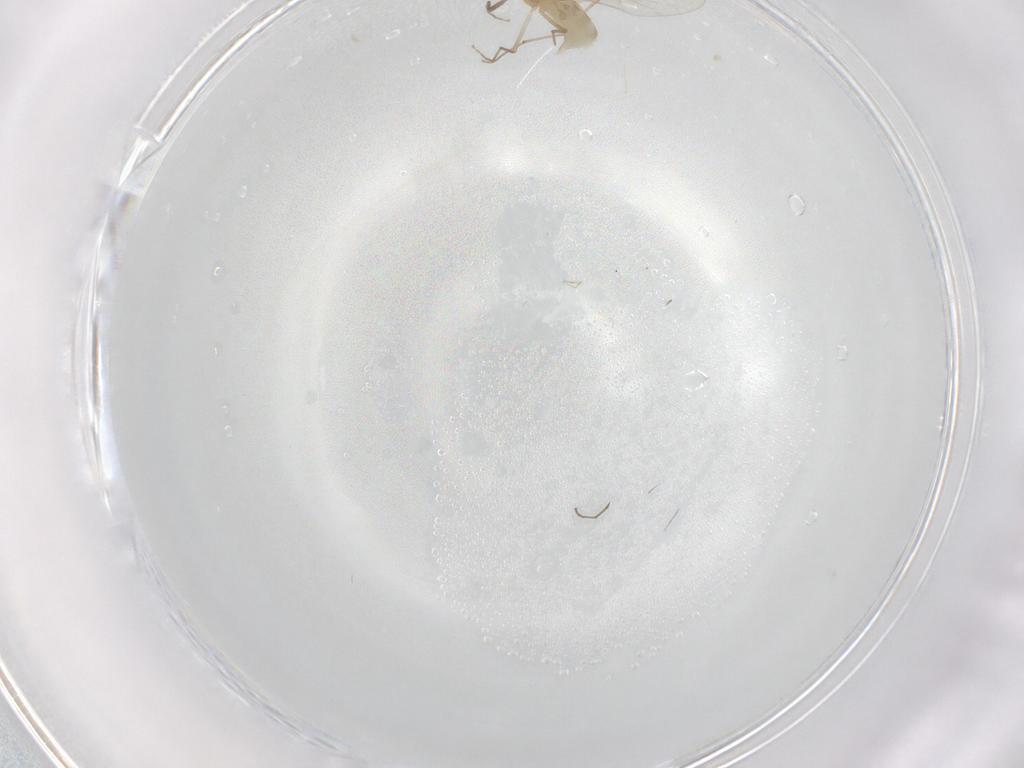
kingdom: Animalia
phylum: Arthropoda
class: Insecta
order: Diptera
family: Chironomidae
